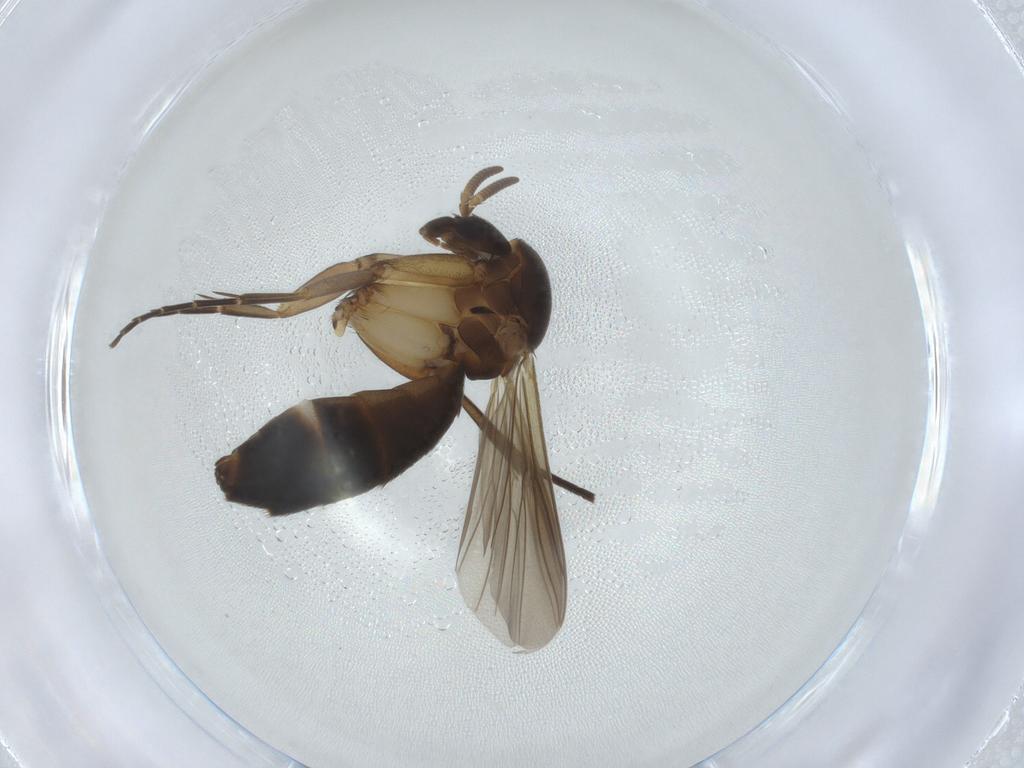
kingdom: Animalia
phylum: Arthropoda
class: Insecta
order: Diptera
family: Mycetophilidae
